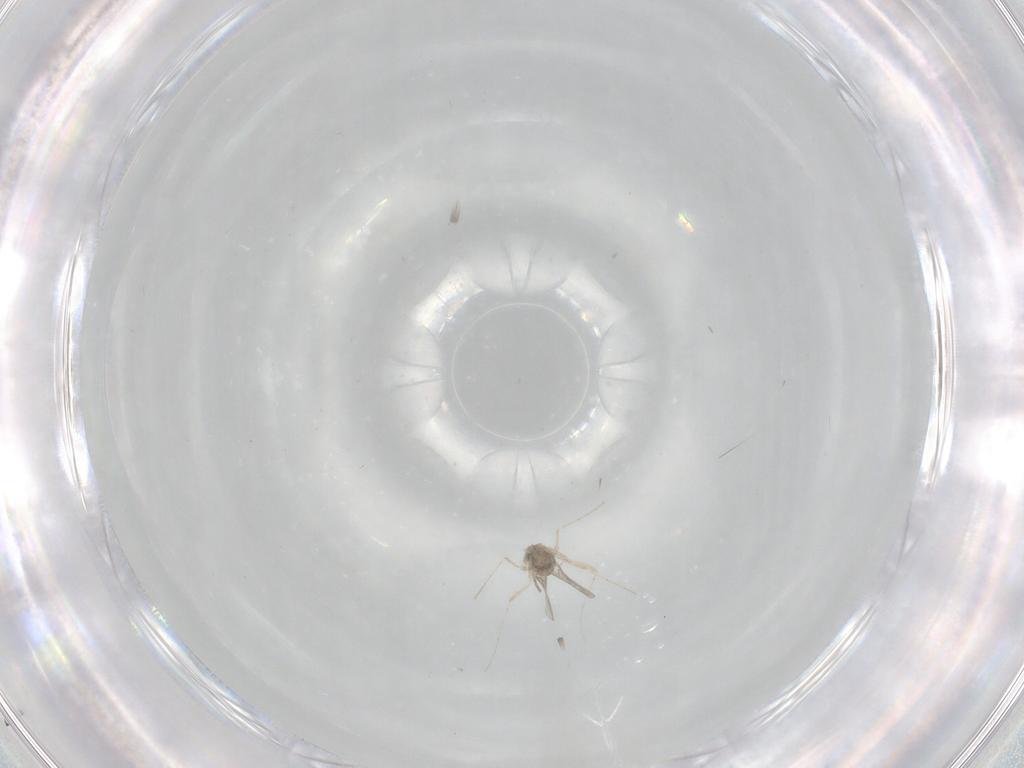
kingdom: Animalia
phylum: Arthropoda
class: Insecta
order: Diptera
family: Cecidomyiidae
